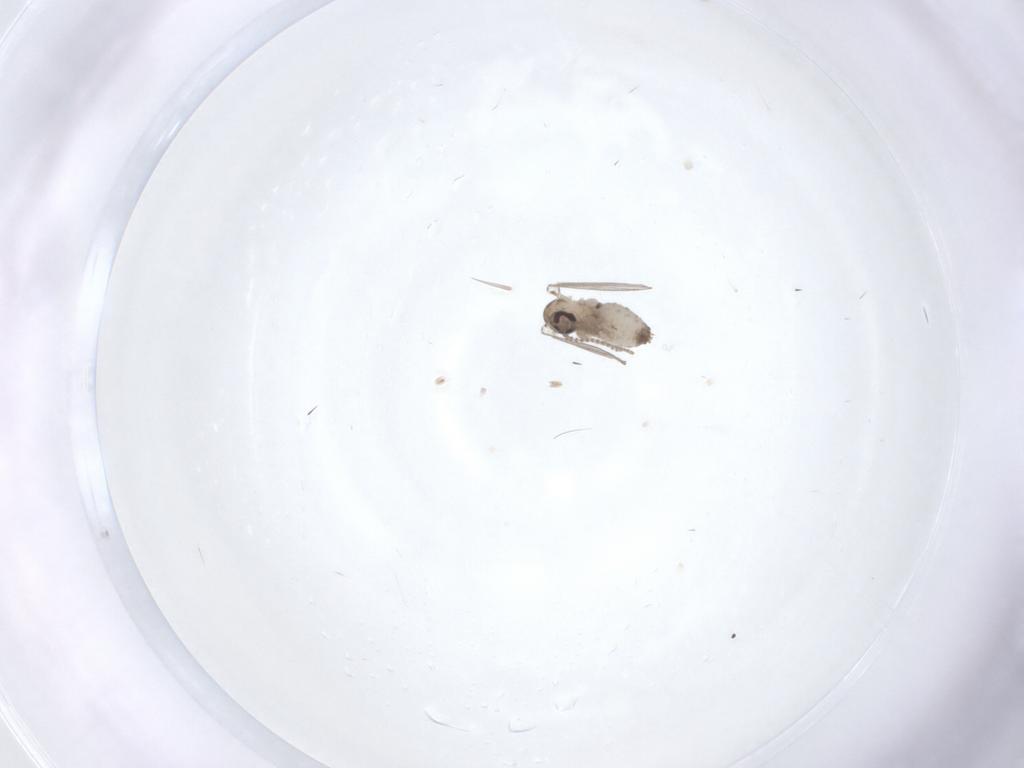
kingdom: Animalia
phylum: Arthropoda
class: Insecta
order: Diptera
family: Psychodidae
